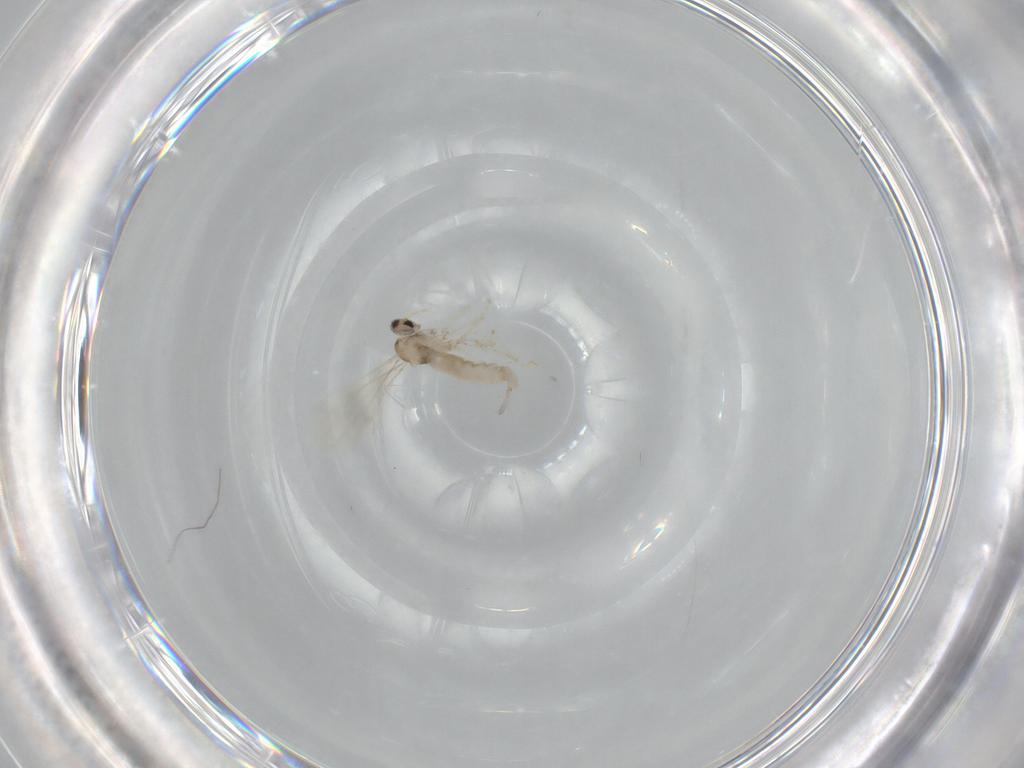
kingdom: Animalia
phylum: Arthropoda
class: Insecta
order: Diptera
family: Cecidomyiidae
